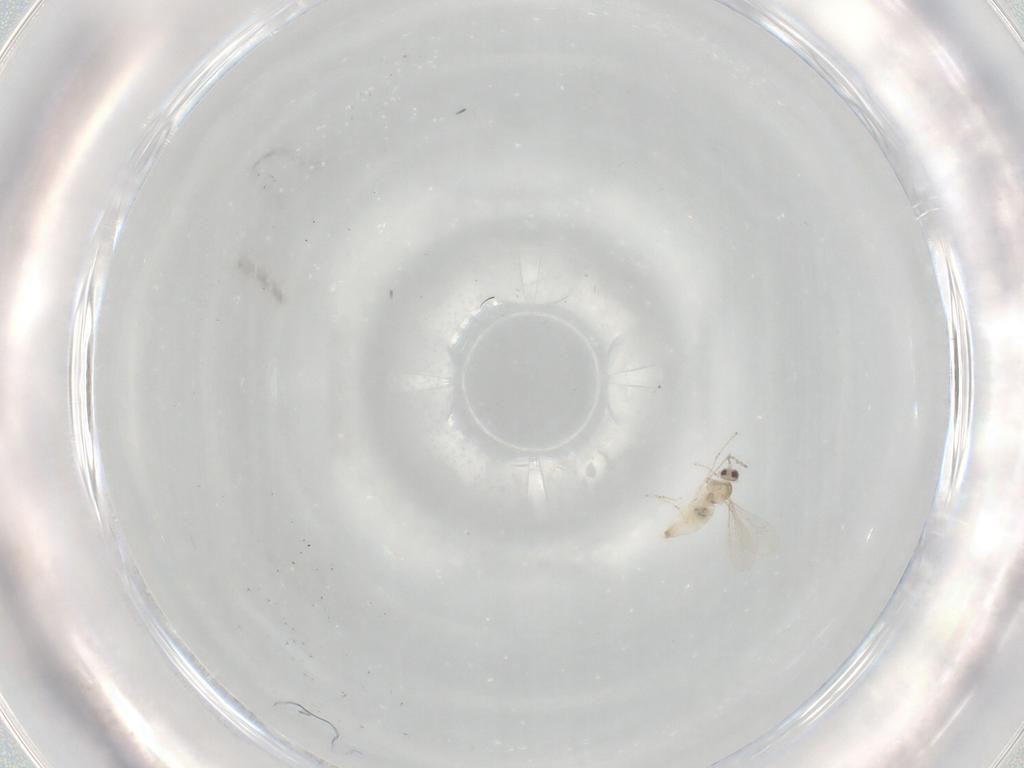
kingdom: Animalia
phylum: Arthropoda
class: Insecta
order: Diptera
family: Cecidomyiidae
